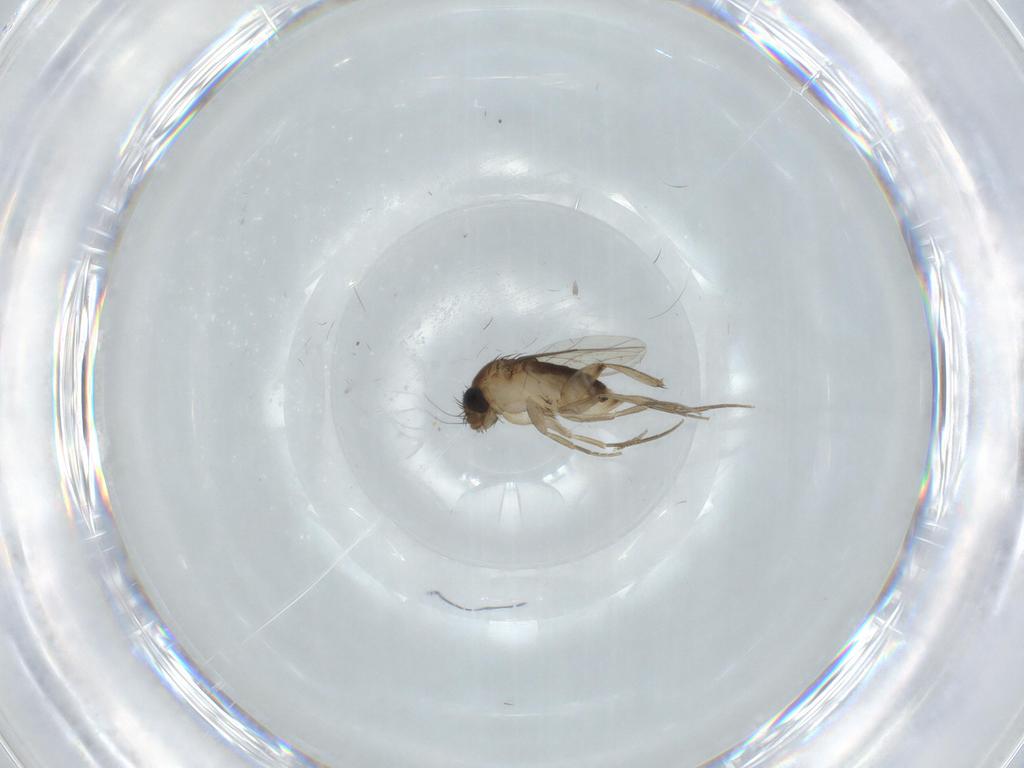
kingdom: Animalia
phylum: Arthropoda
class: Insecta
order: Diptera
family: Phoridae
